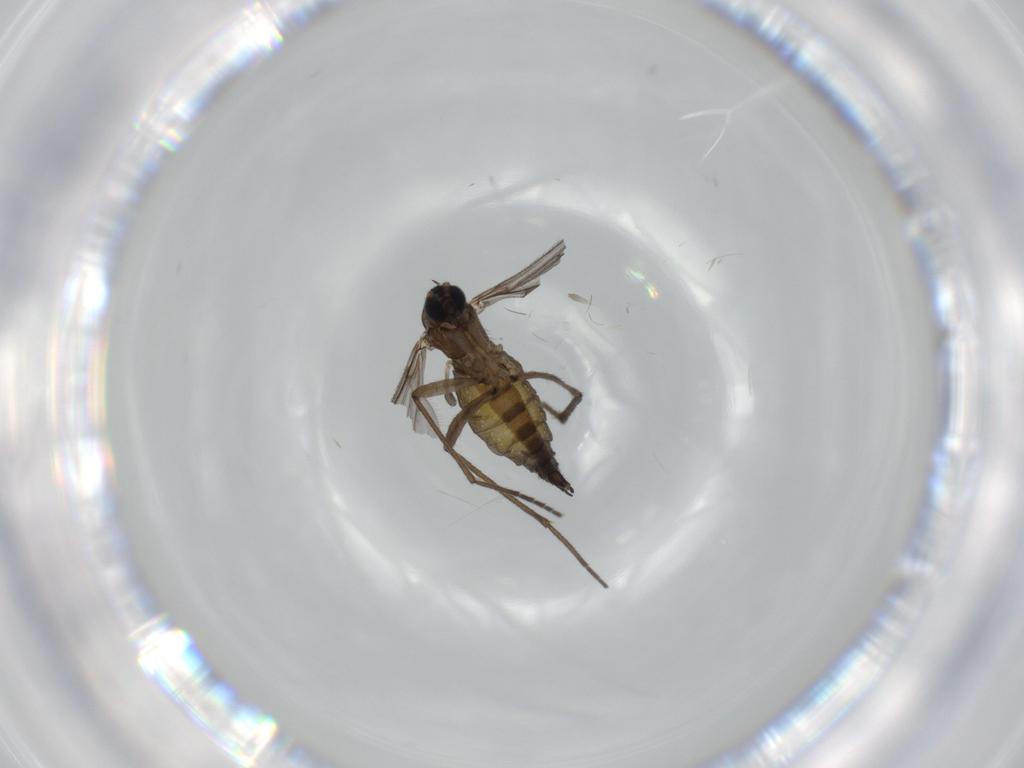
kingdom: Animalia
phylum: Arthropoda
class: Insecta
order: Diptera
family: Sciaridae
